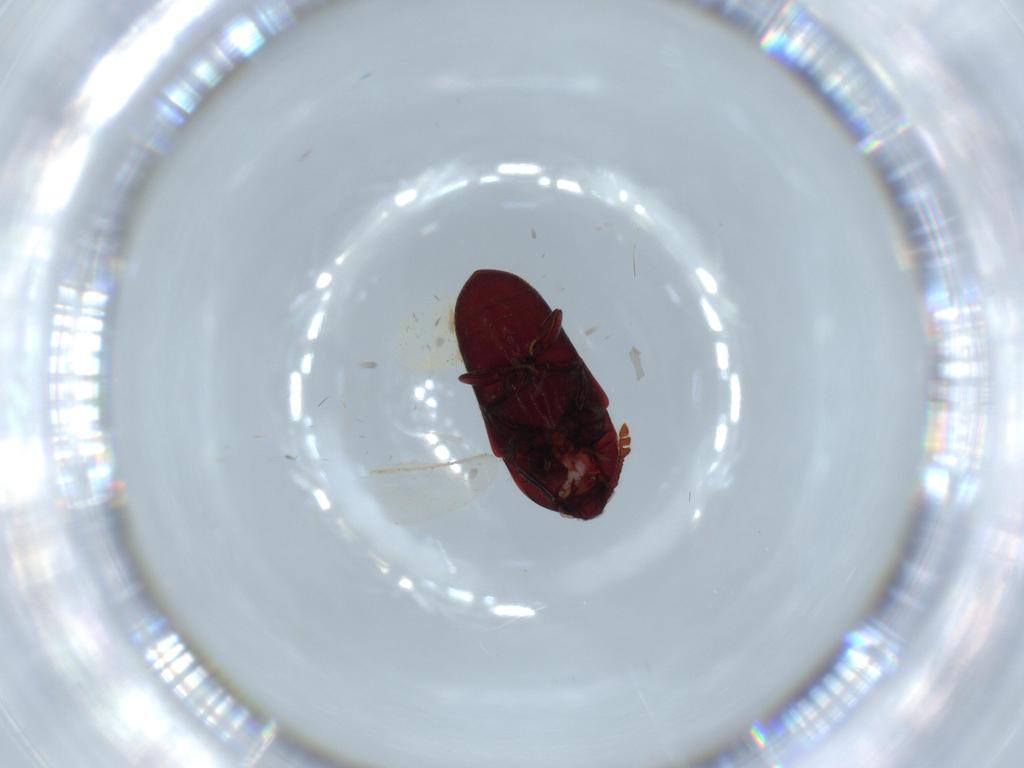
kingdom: Animalia
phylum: Arthropoda
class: Insecta
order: Coleoptera
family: Throscidae
